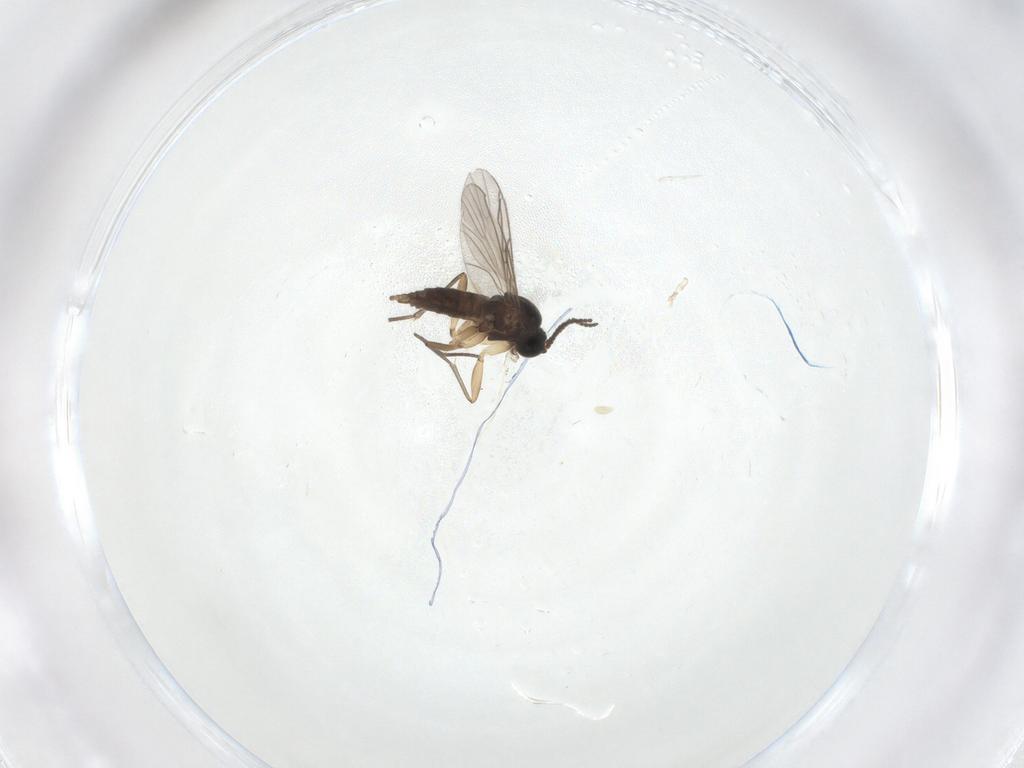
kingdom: Animalia
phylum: Arthropoda
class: Insecta
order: Diptera
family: Sciaridae
